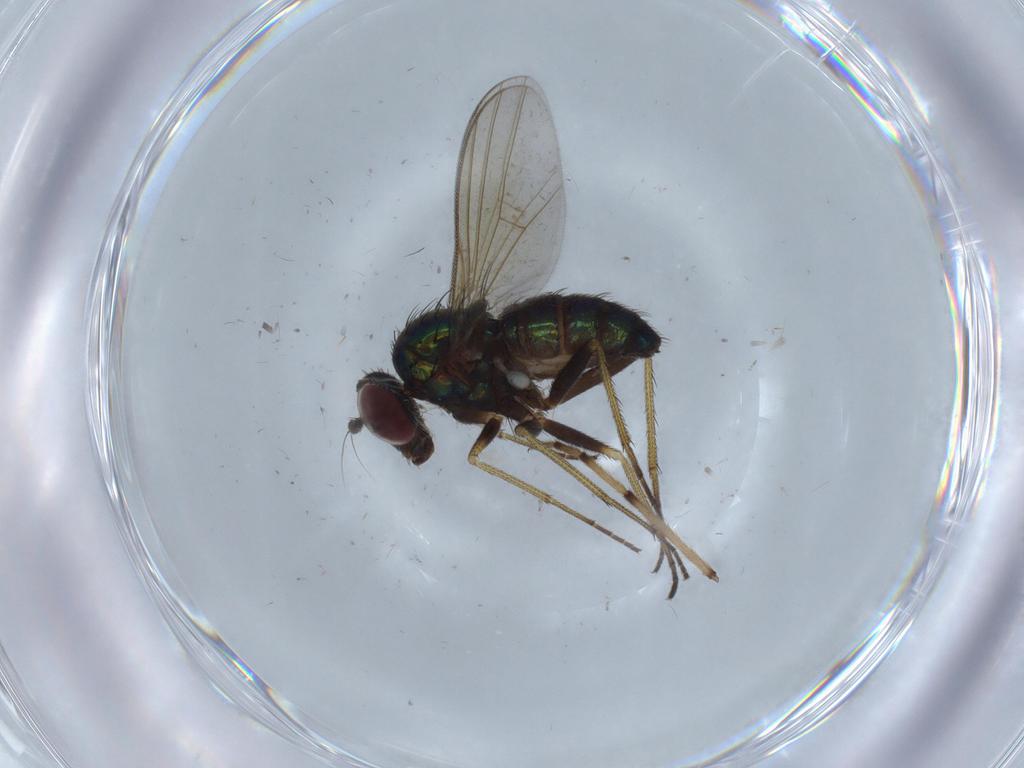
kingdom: Animalia
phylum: Arthropoda
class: Insecta
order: Diptera
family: Dolichopodidae
